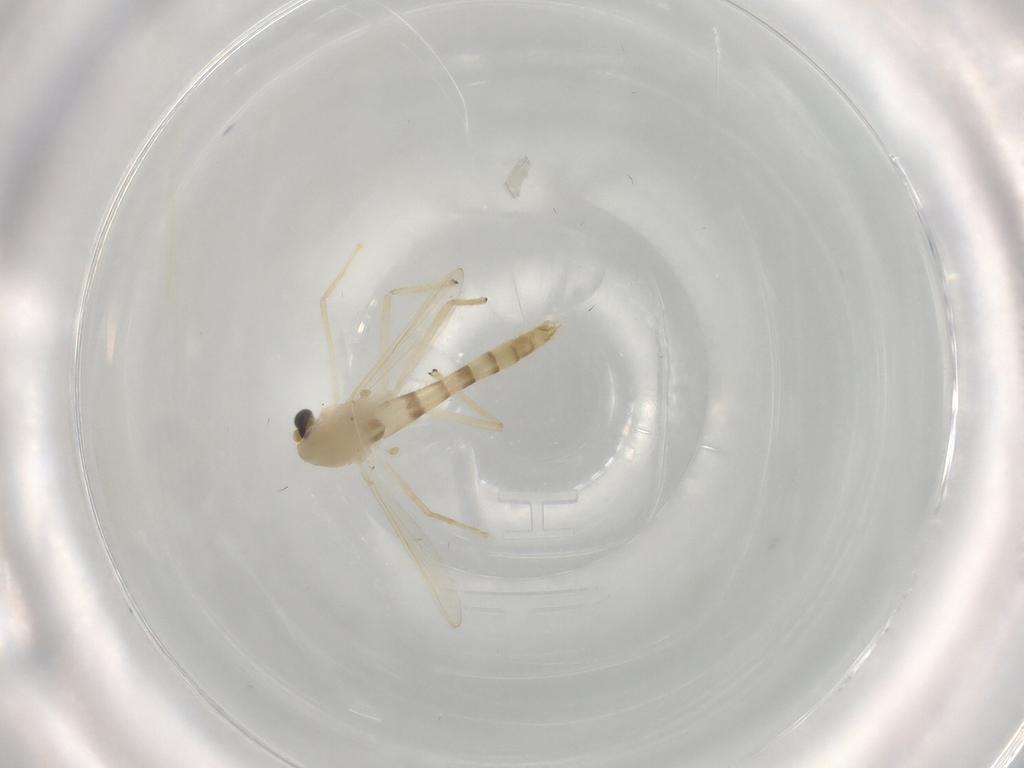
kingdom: Animalia
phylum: Arthropoda
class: Insecta
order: Diptera
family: Chironomidae
